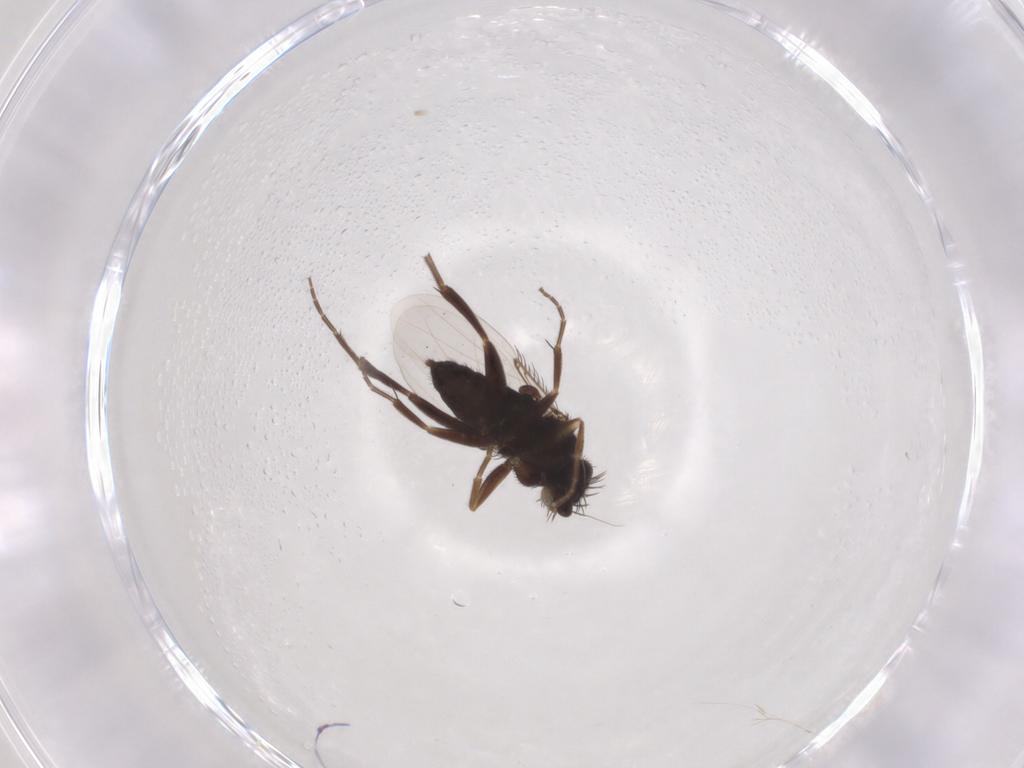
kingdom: Animalia
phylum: Arthropoda
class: Insecta
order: Diptera
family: Phoridae
